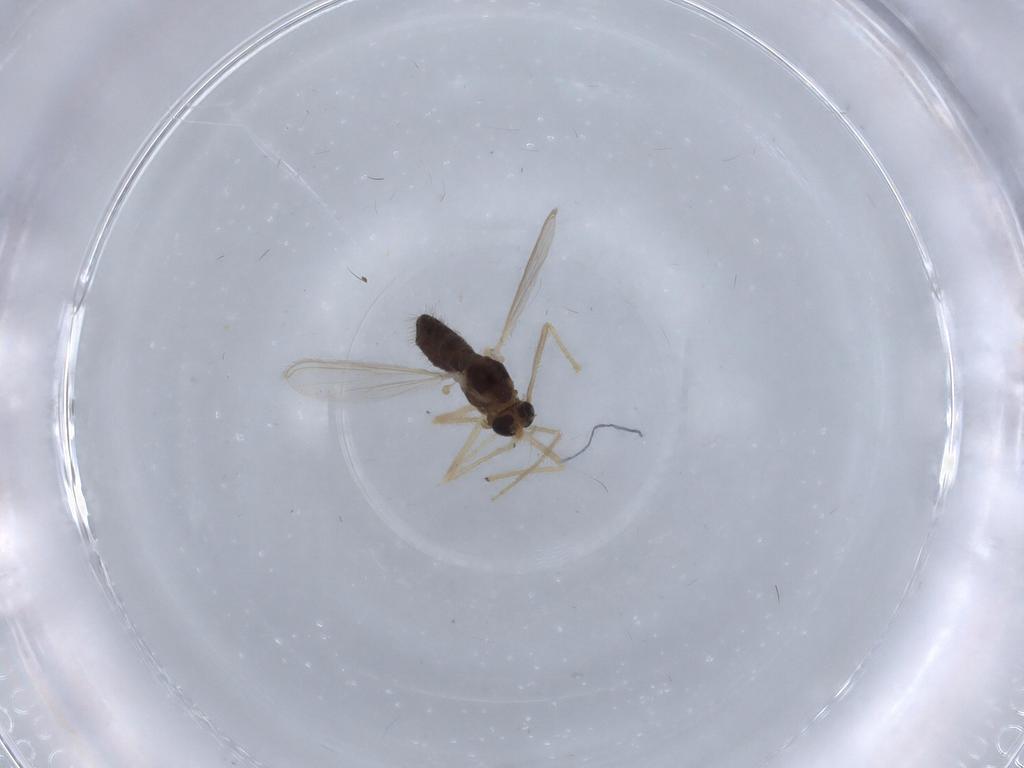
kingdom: Animalia
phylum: Arthropoda
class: Insecta
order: Diptera
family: Chironomidae
